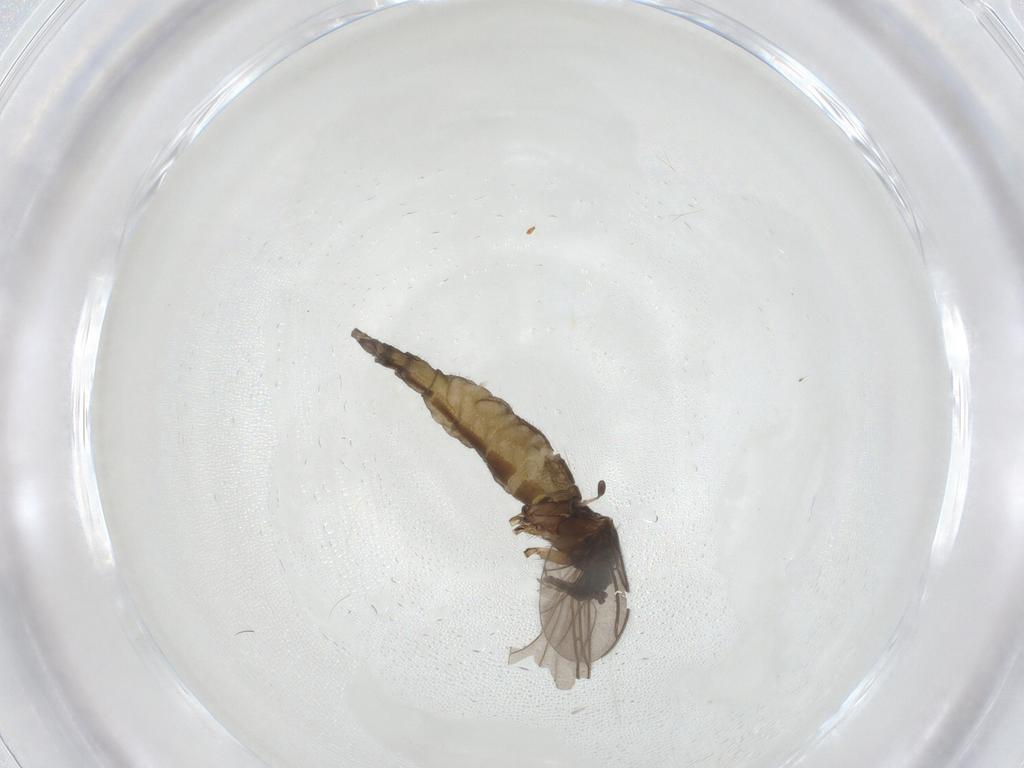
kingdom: Animalia
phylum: Arthropoda
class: Insecta
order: Diptera
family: Sciaridae
